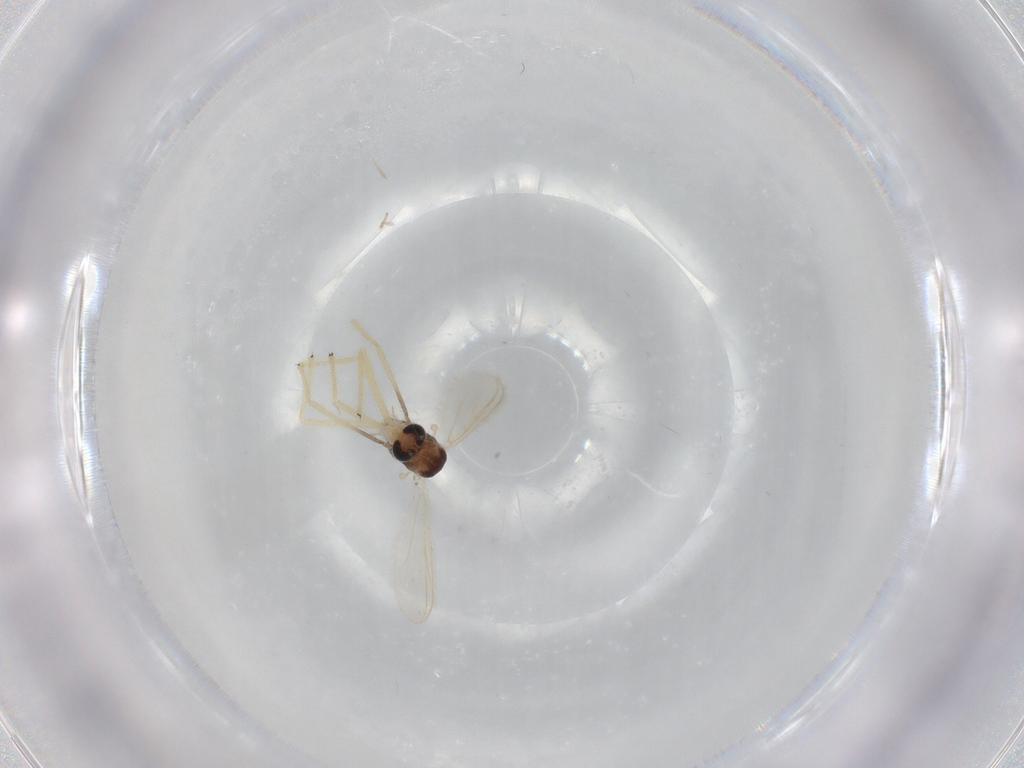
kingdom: Animalia
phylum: Arthropoda
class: Insecta
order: Diptera
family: Chironomidae
